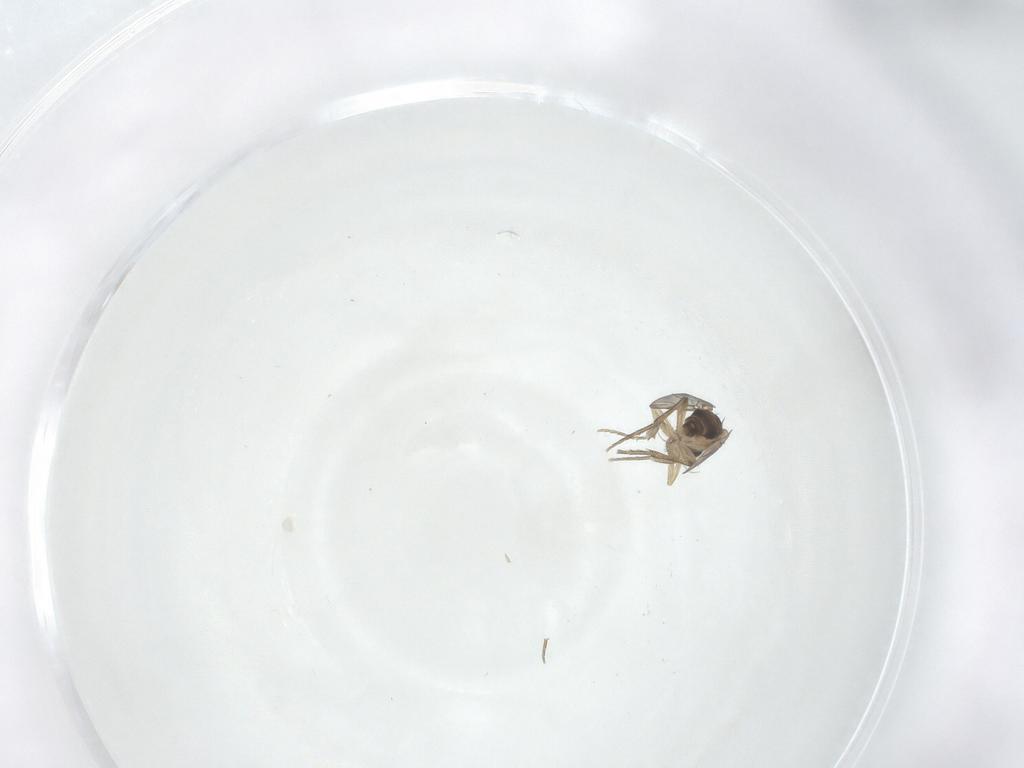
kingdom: Animalia
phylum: Arthropoda
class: Insecta
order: Diptera
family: Phoridae
